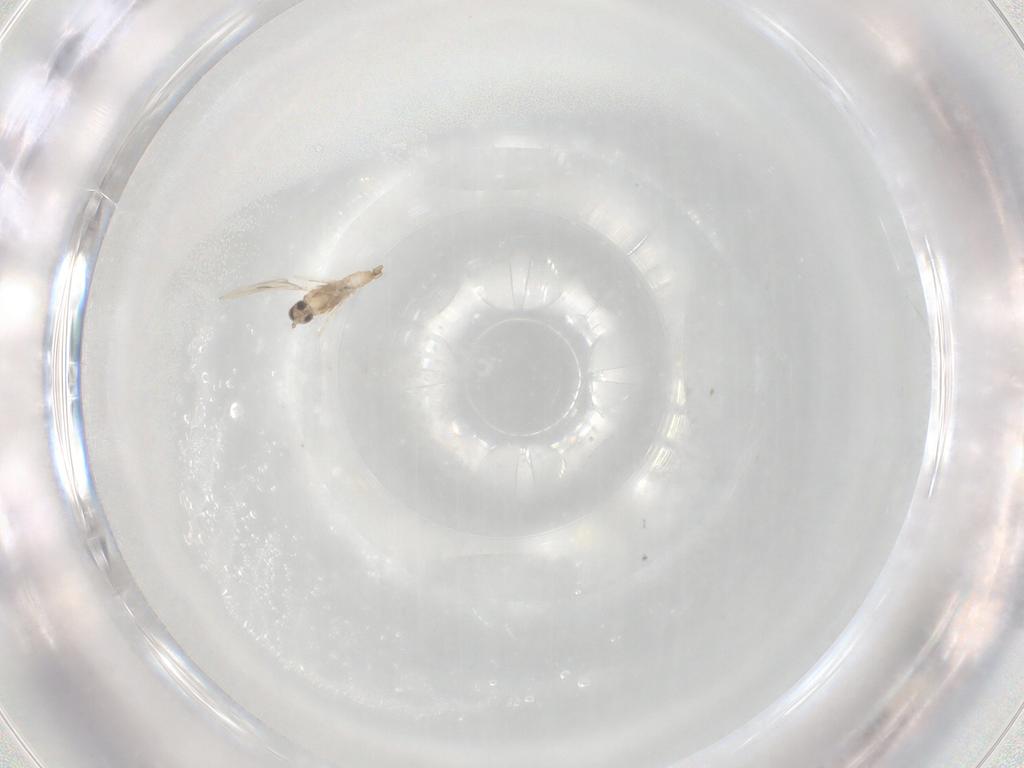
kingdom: Animalia
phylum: Arthropoda
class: Insecta
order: Diptera
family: Cecidomyiidae
